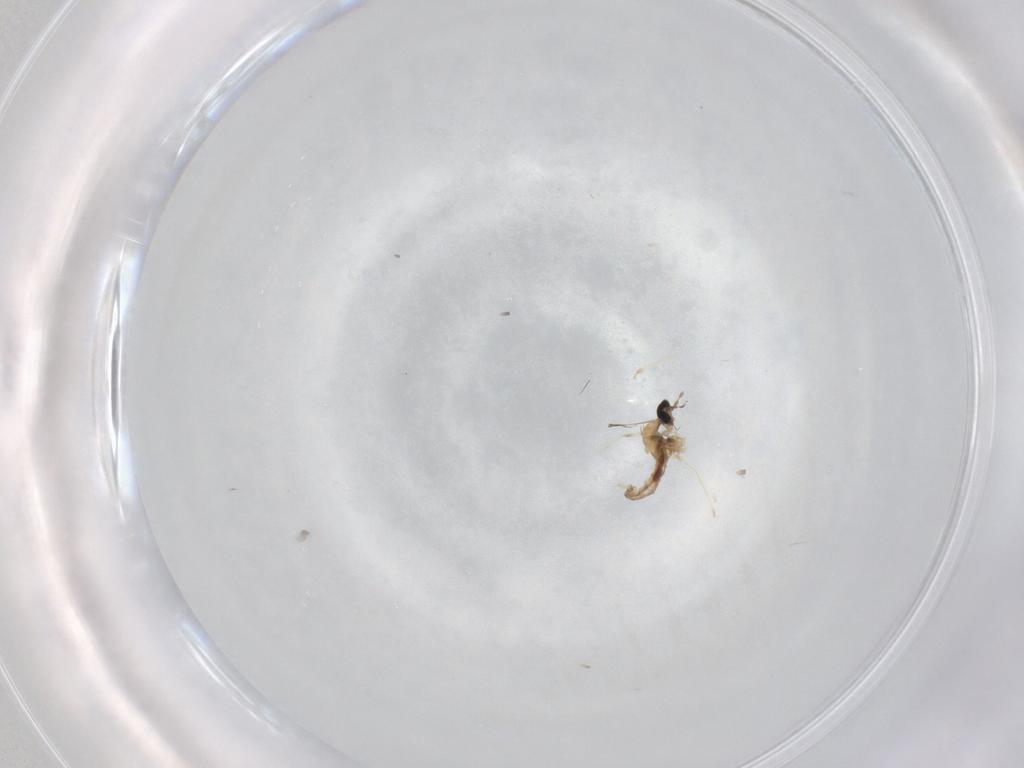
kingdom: Animalia
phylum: Arthropoda
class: Insecta
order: Diptera
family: Cecidomyiidae
